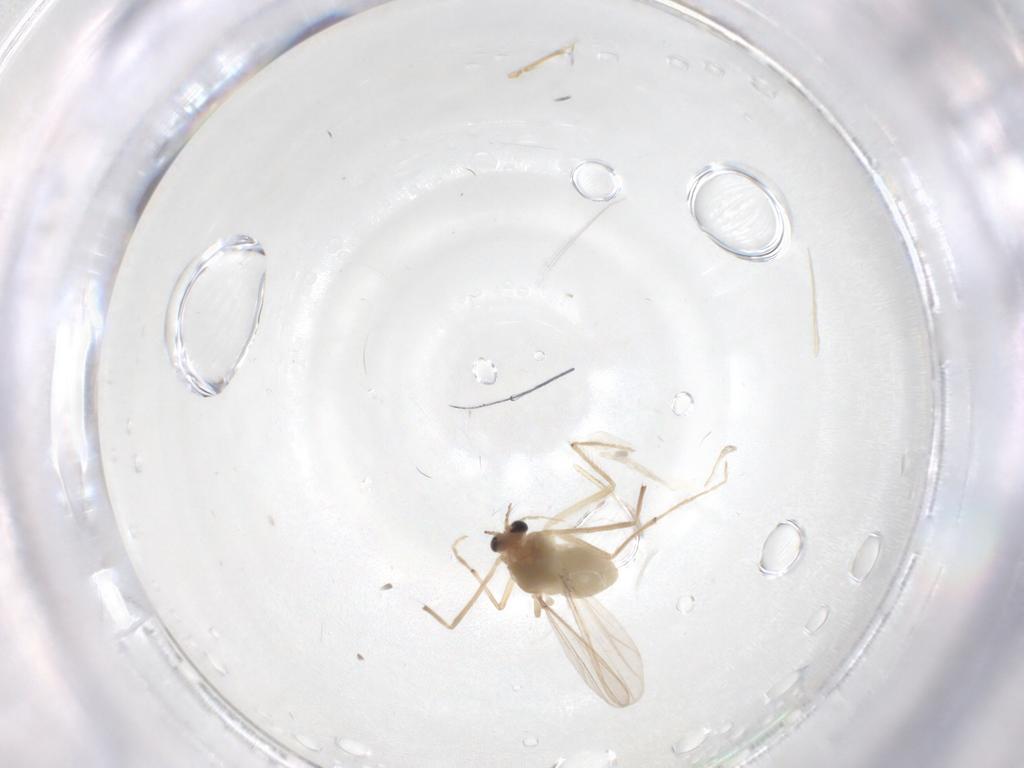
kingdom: Animalia
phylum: Arthropoda
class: Insecta
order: Diptera
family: Chironomidae
